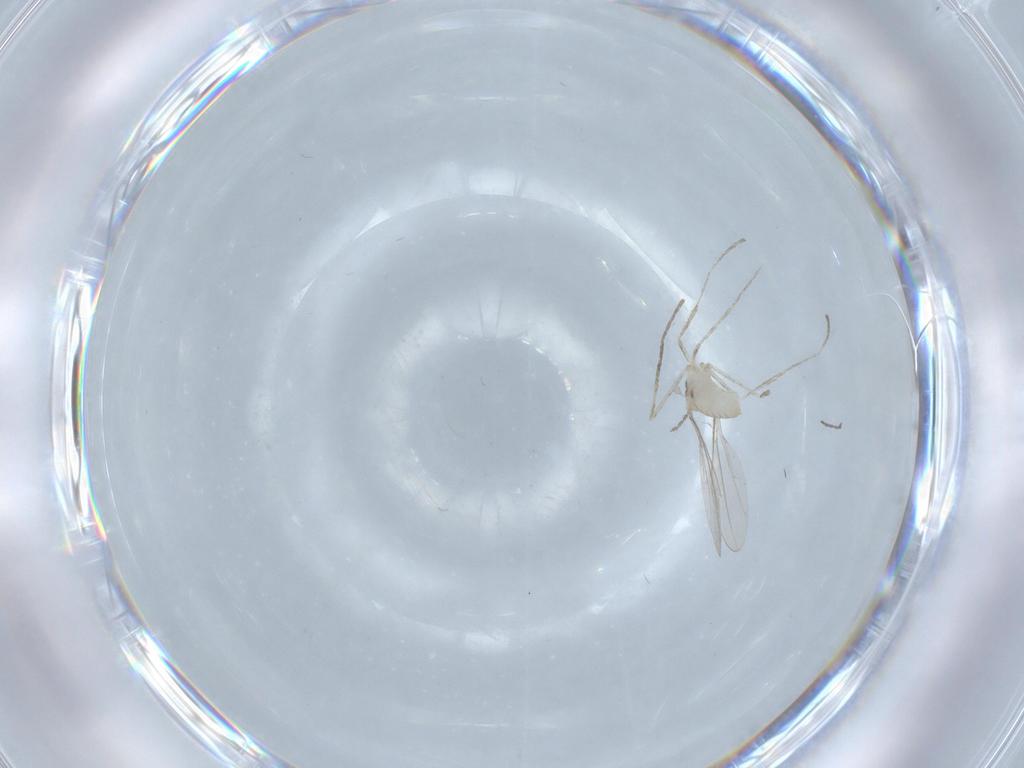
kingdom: Animalia
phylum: Arthropoda
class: Insecta
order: Diptera
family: Cecidomyiidae
